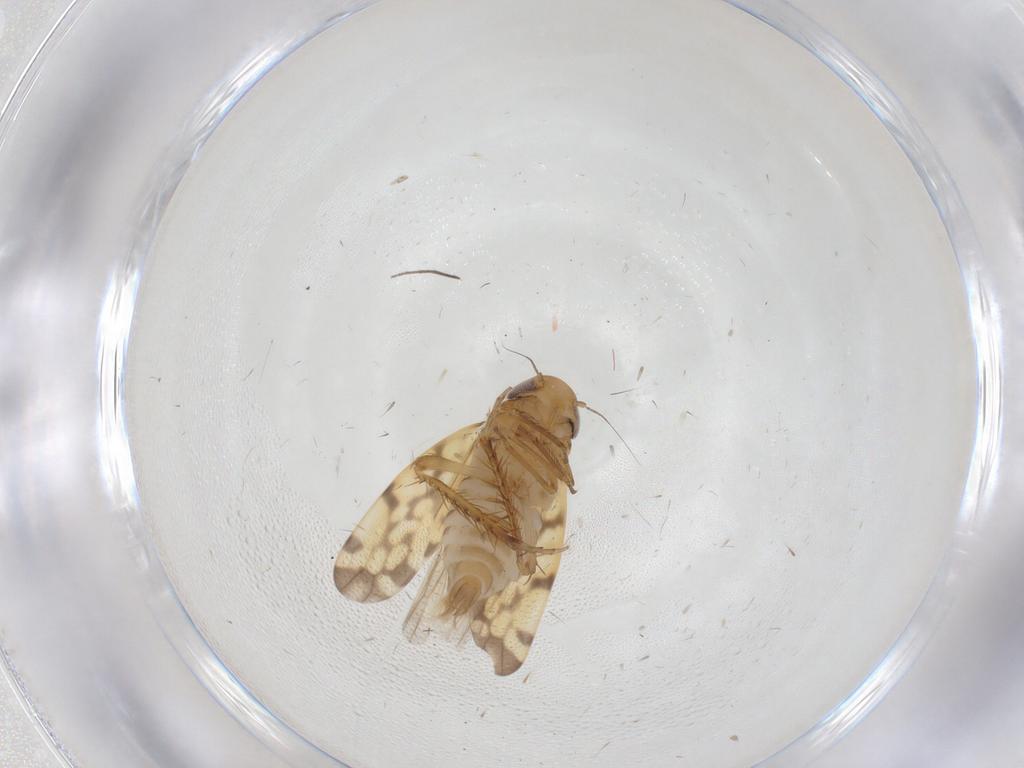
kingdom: Animalia
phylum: Arthropoda
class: Insecta
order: Hemiptera
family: Cicadellidae
